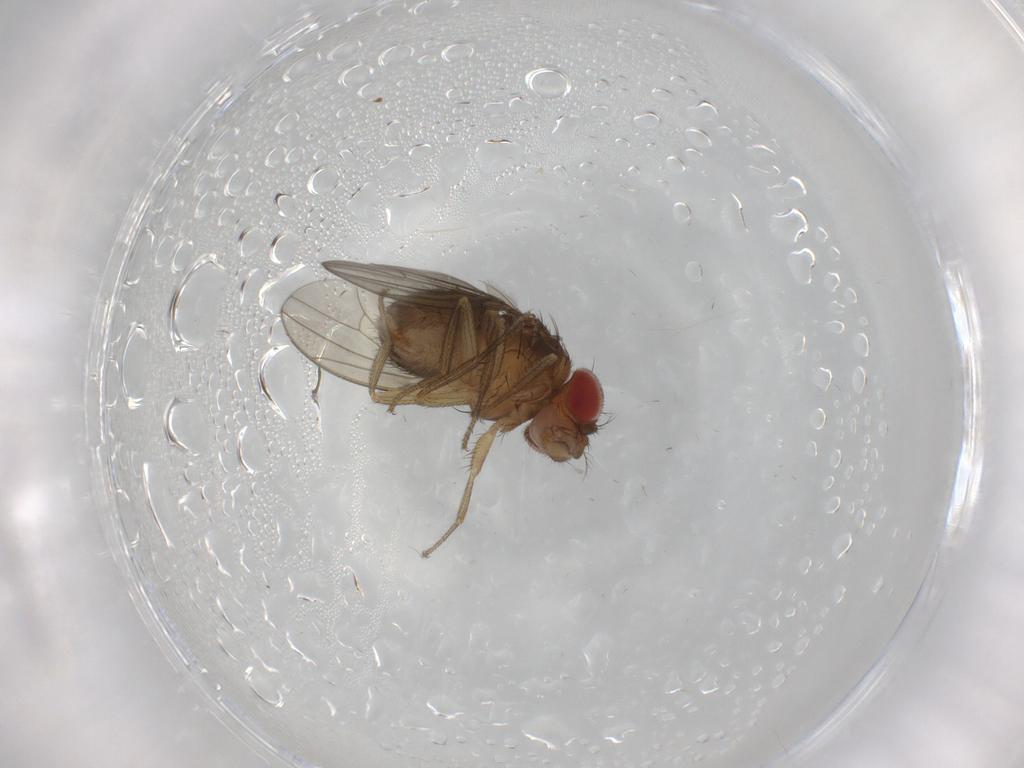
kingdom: Animalia
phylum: Arthropoda
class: Insecta
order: Diptera
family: Drosophilidae
